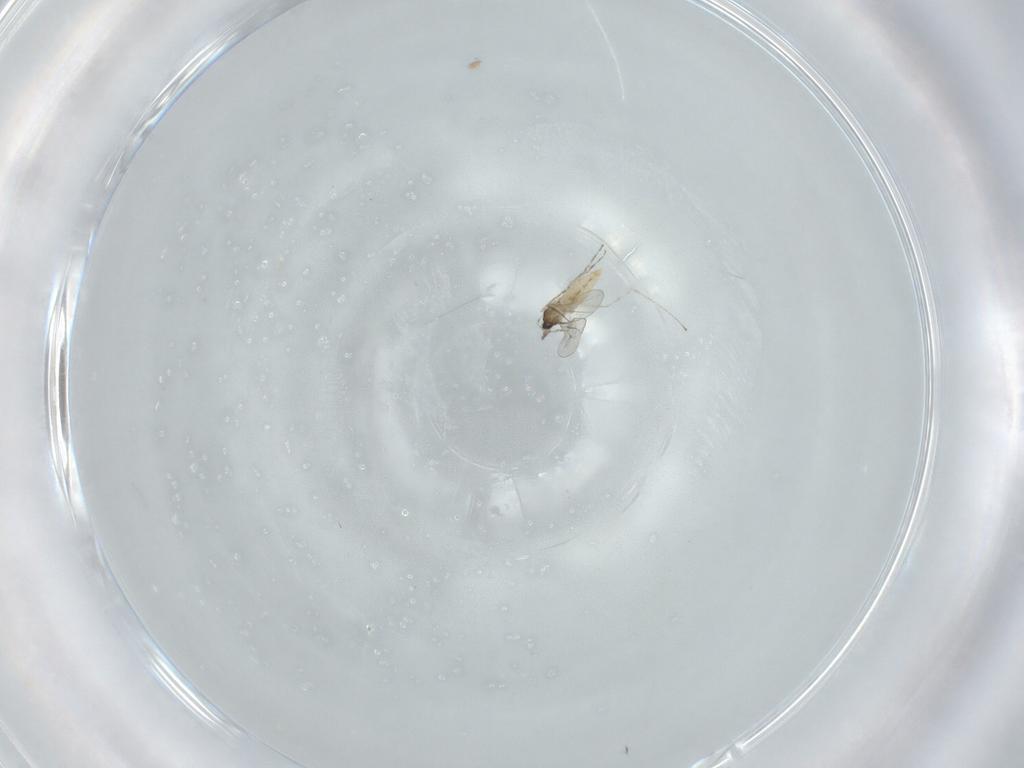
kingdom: Animalia
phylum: Arthropoda
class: Insecta
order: Diptera
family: Cecidomyiidae
